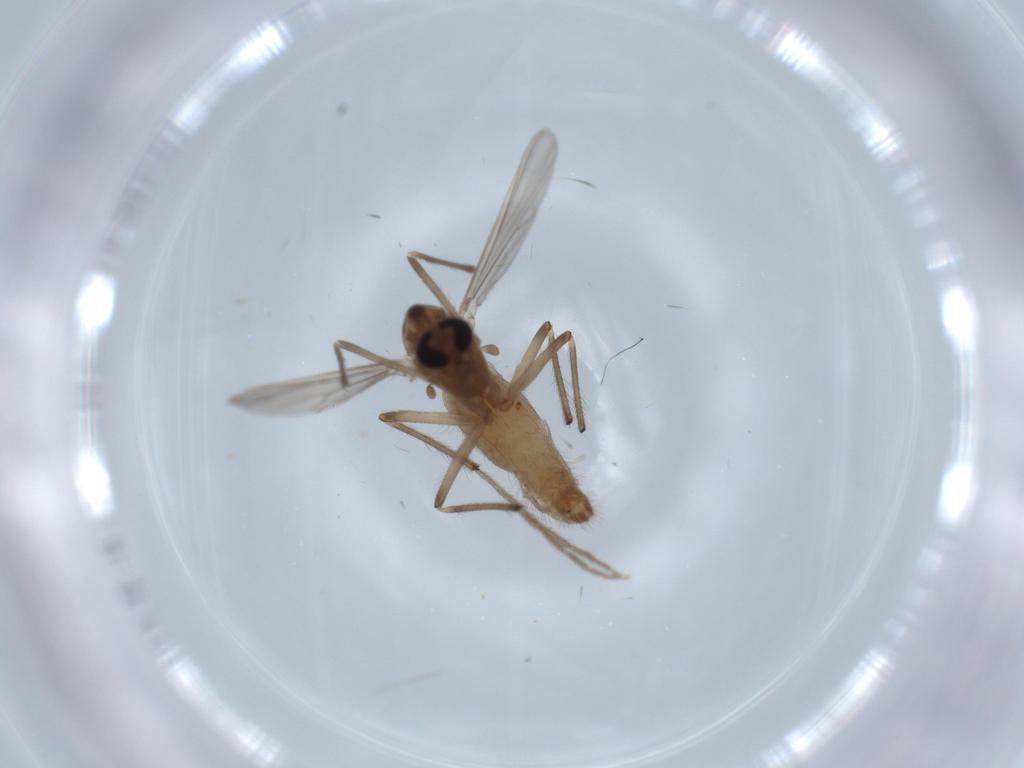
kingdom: Animalia
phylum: Arthropoda
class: Insecta
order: Diptera
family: Chironomidae
